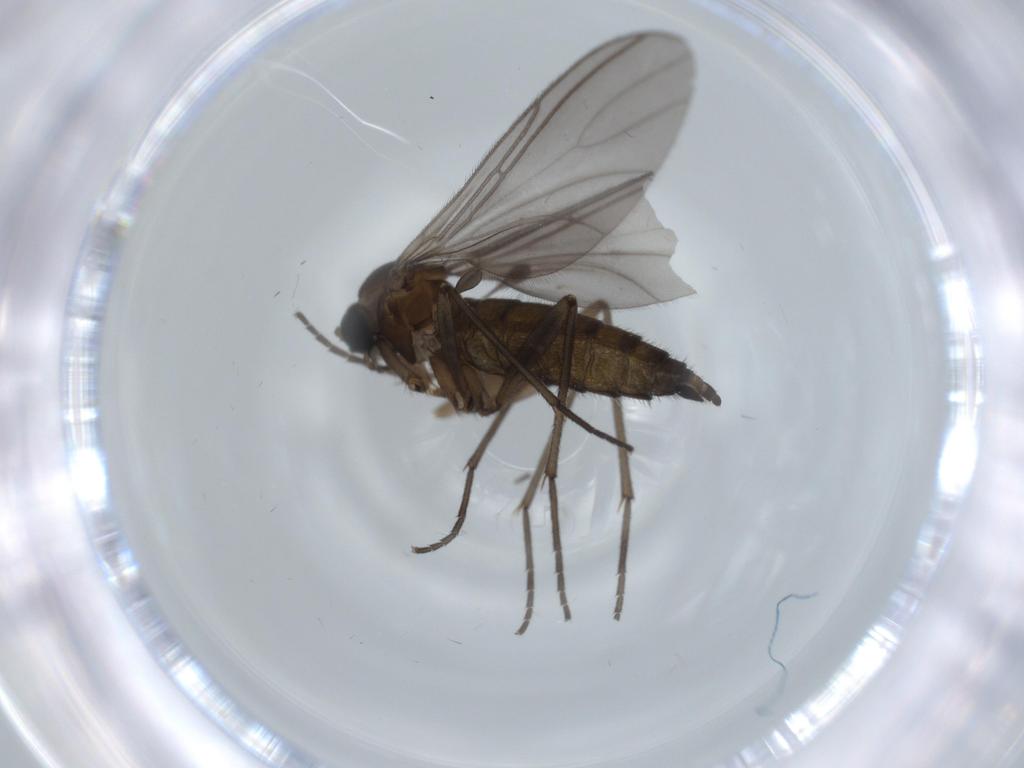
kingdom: Animalia
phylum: Arthropoda
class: Insecta
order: Diptera
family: Sciaridae
